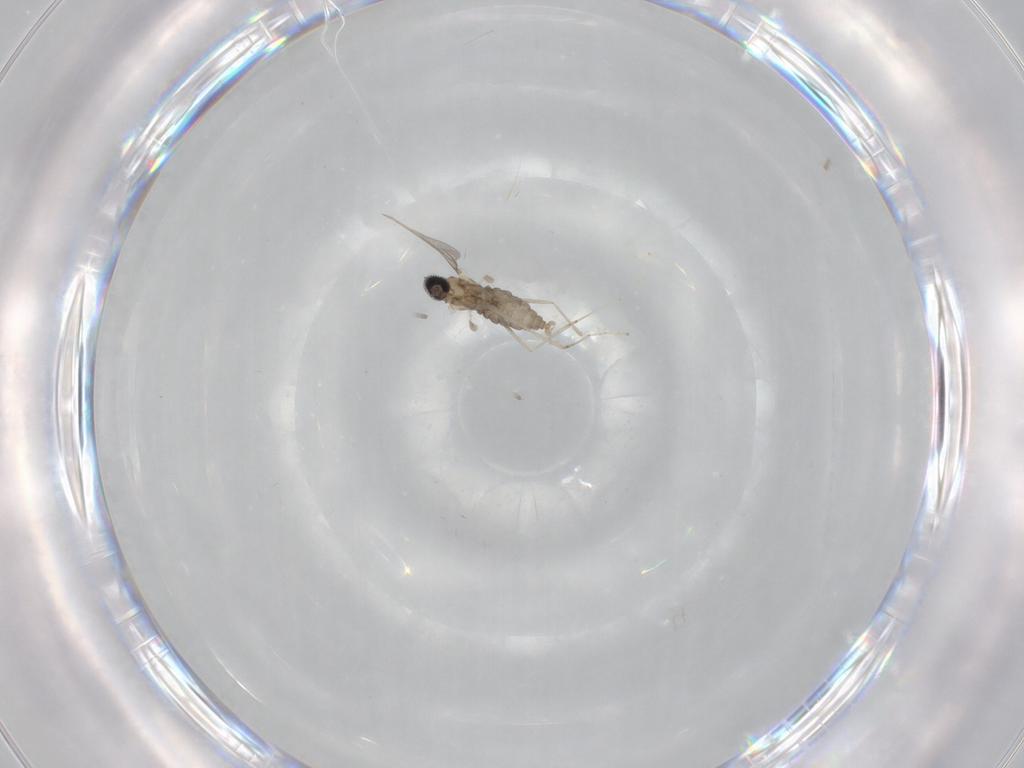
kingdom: Animalia
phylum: Arthropoda
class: Insecta
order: Diptera
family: Cecidomyiidae
